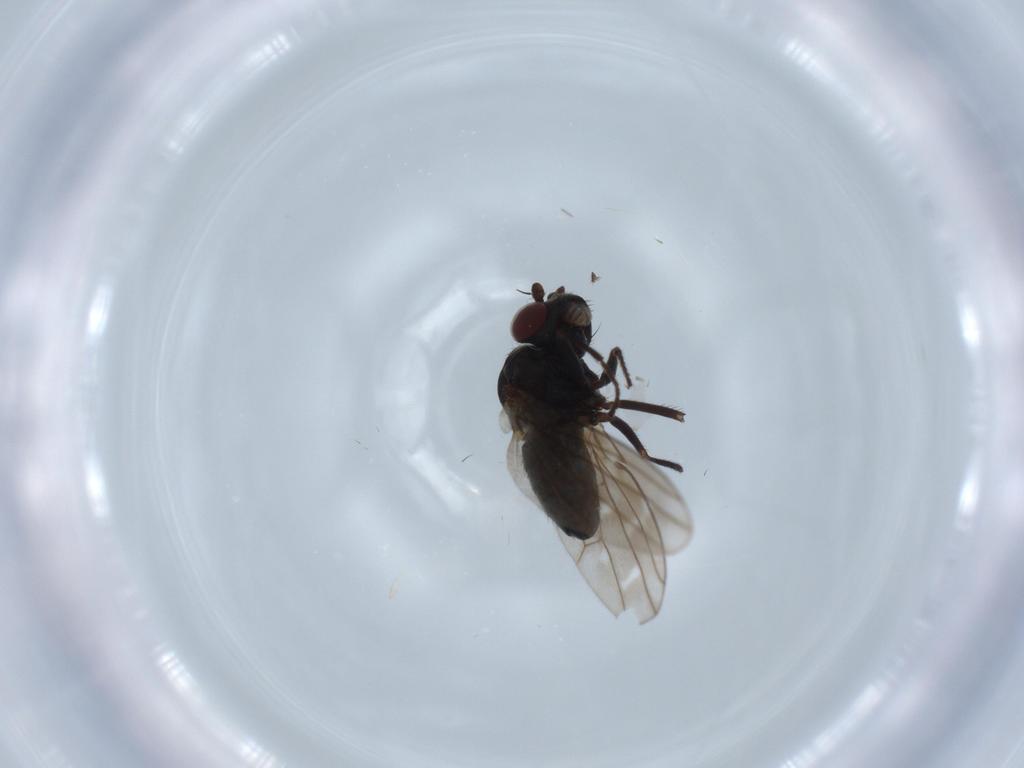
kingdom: Animalia
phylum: Arthropoda
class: Insecta
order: Diptera
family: Ephydridae
